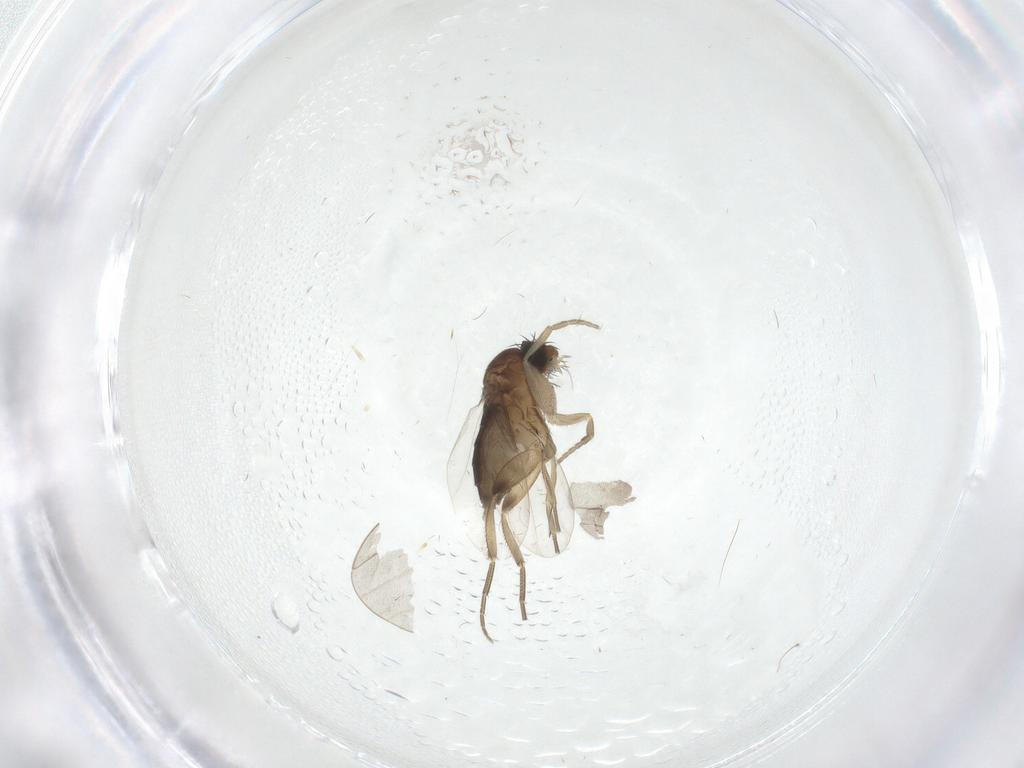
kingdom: Animalia
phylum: Arthropoda
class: Insecta
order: Diptera
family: Phoridae
